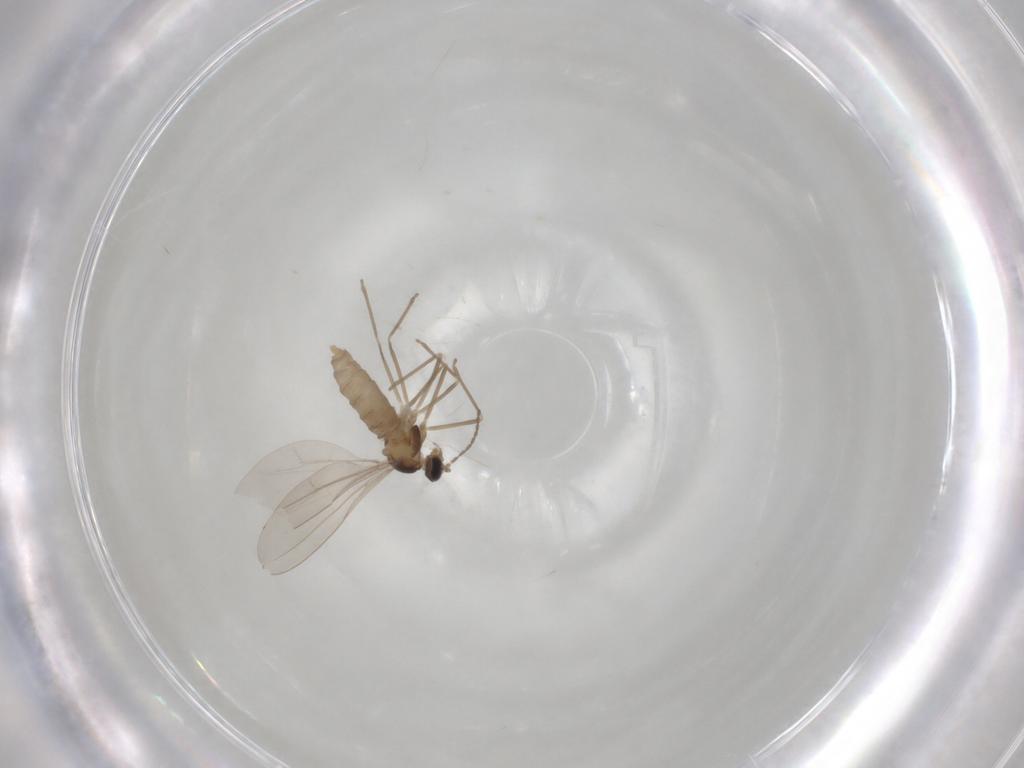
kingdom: Animalia
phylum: Arthropoda
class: Insecta
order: Diptera
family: Cecidomyiidae
